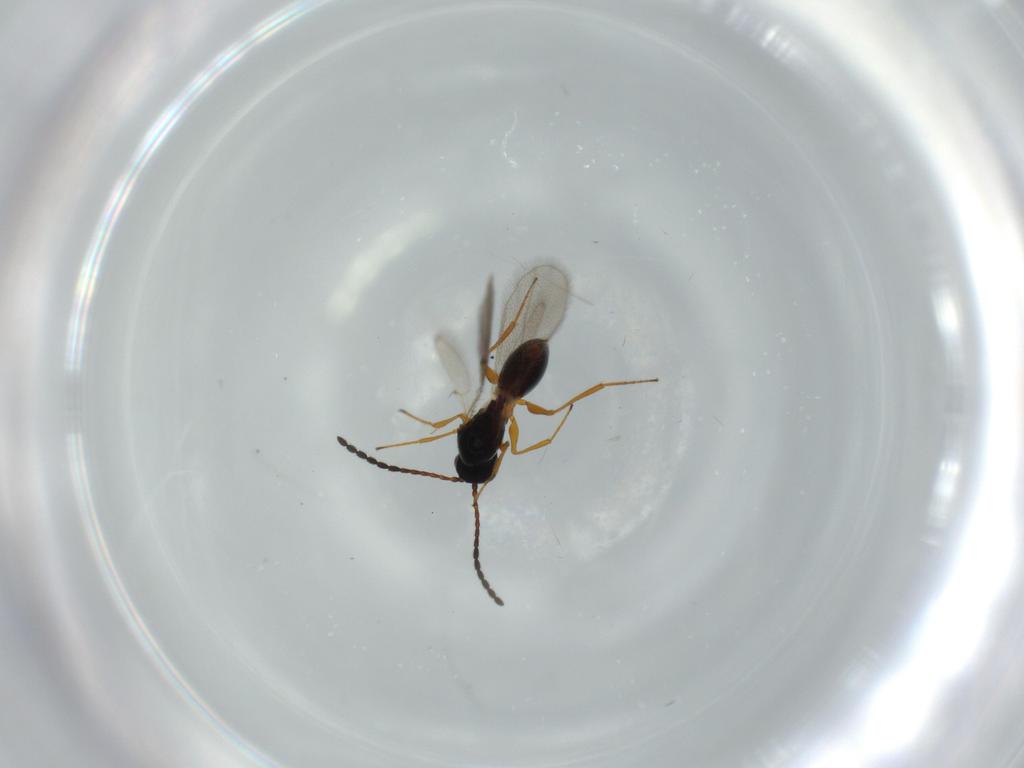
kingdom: Animalia
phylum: Arthropoda
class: Insecta
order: Hymenoptera
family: Figitidae
